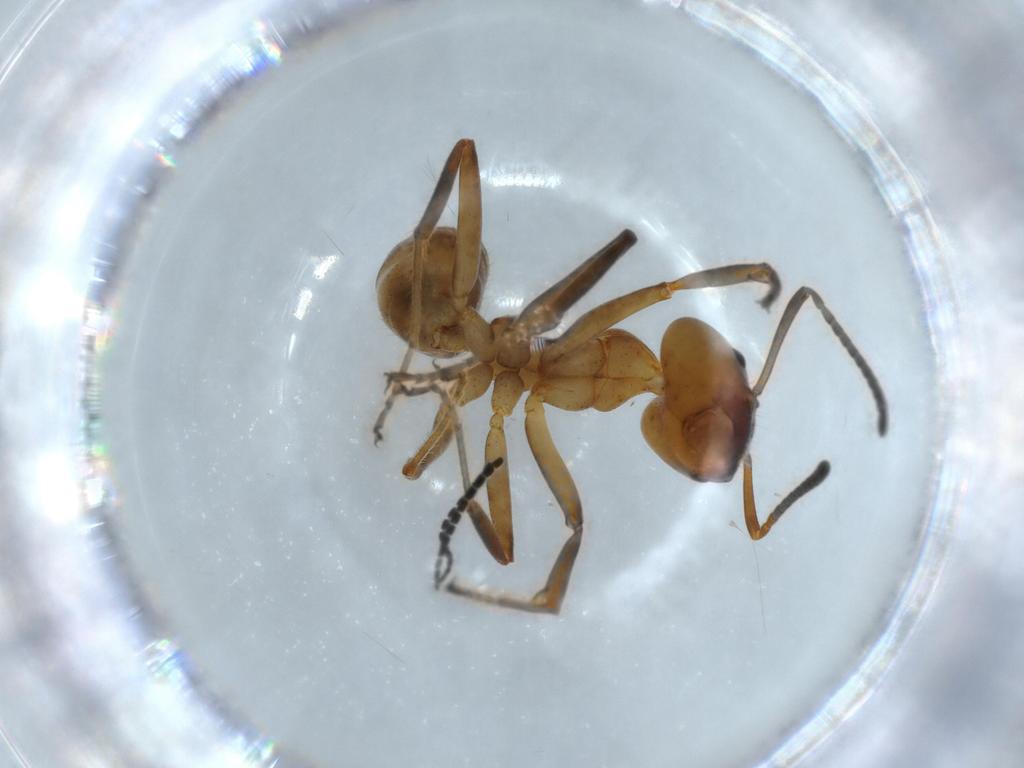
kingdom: Animalia
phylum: Arthropoda
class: Insecta
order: Hymenoptera
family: Formicidae
